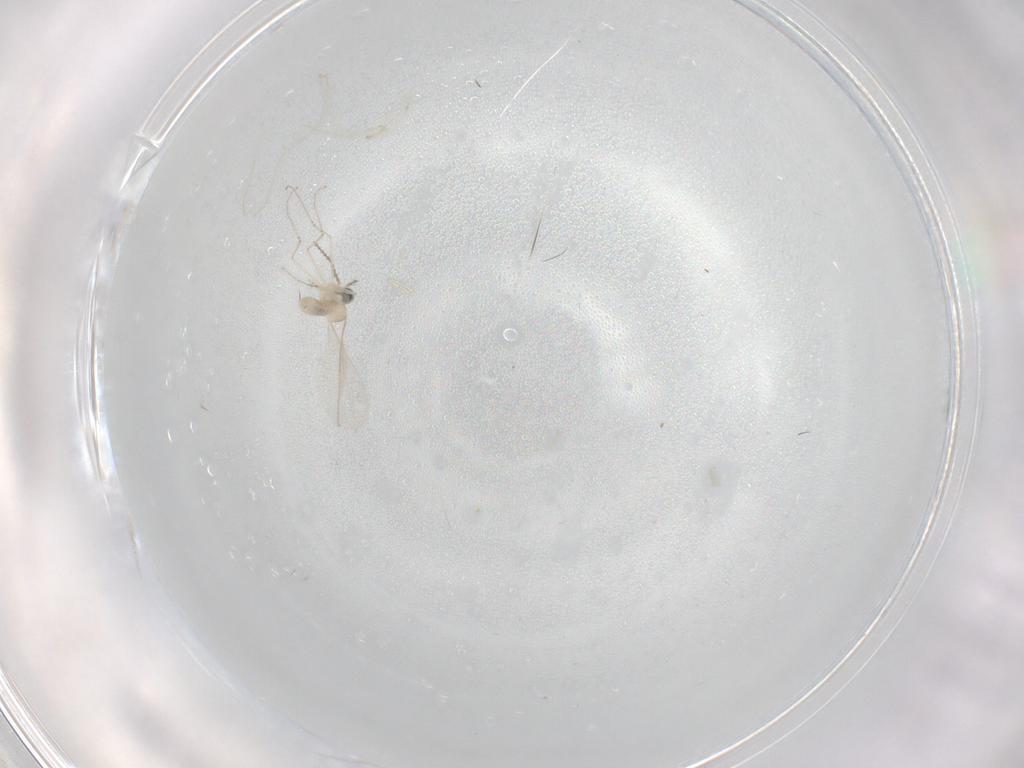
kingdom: Animalia
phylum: Arthropoda
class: Insecta
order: Diptera
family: Cecidomyiidae
